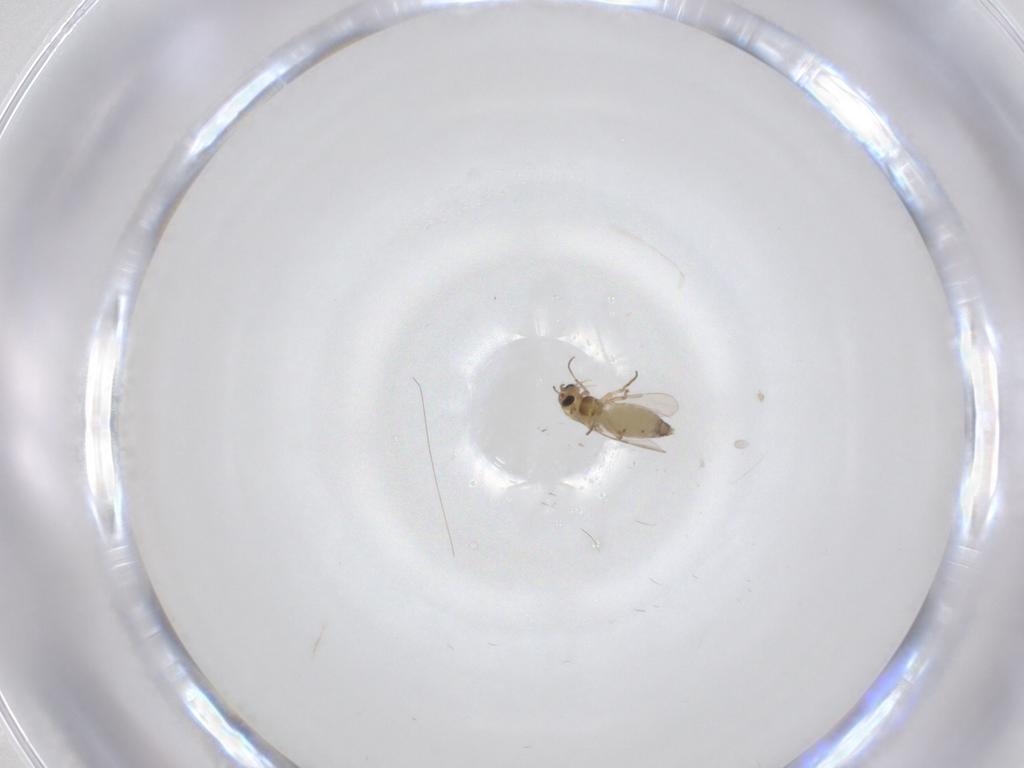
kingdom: Animalia
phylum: Arthropoda
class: Insecta
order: Diptera
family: Chironomidae
